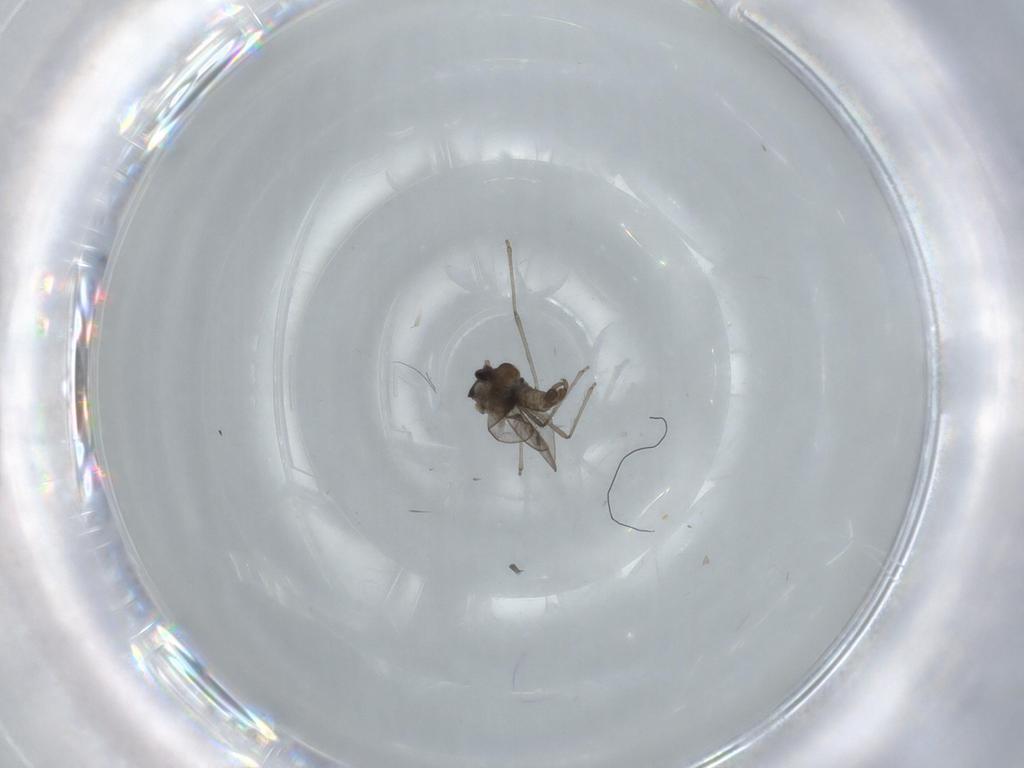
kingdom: Animalia
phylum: Arthropoda
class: Insecta
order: Diptera
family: Cecidomyiidae
